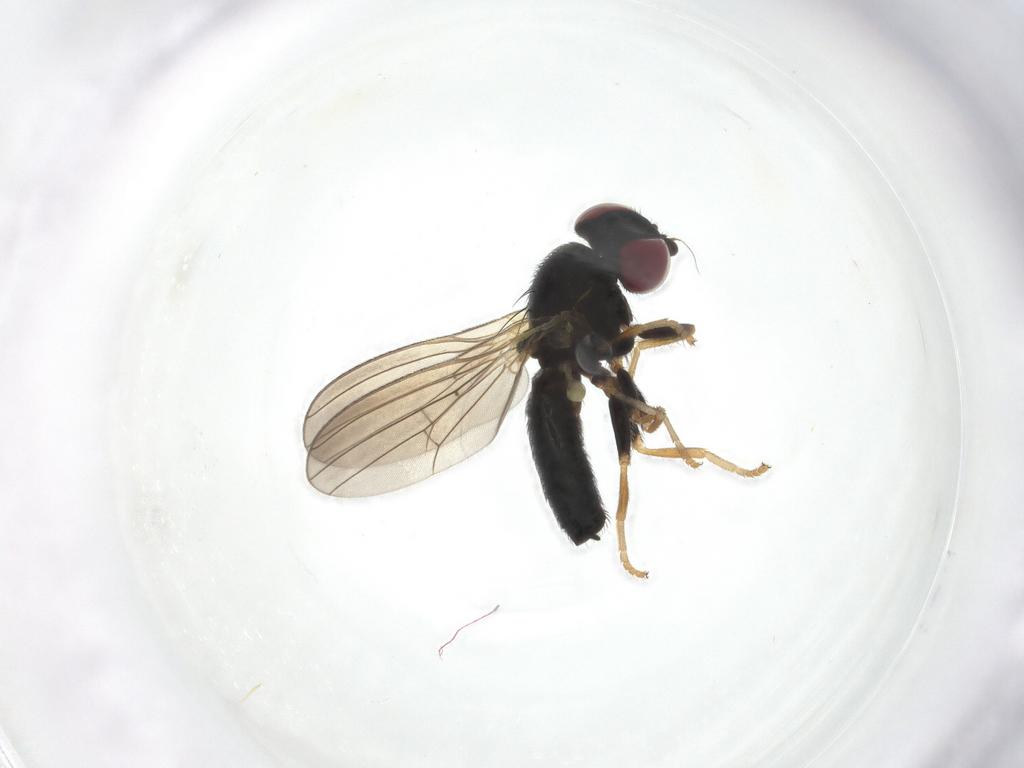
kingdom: Animalia
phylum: Arthropoda
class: Insecta
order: Diptera
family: Chamaemyiidae
